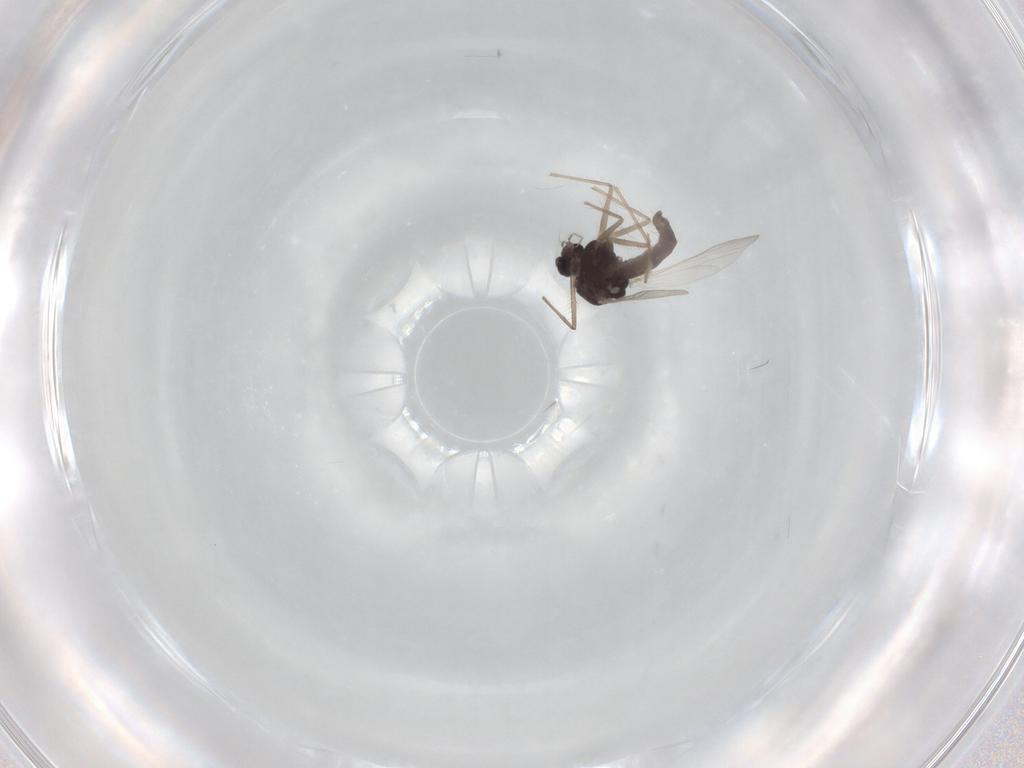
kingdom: Animalia
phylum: Arthropoda
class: Insecta
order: Diptera
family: Chironomidae
